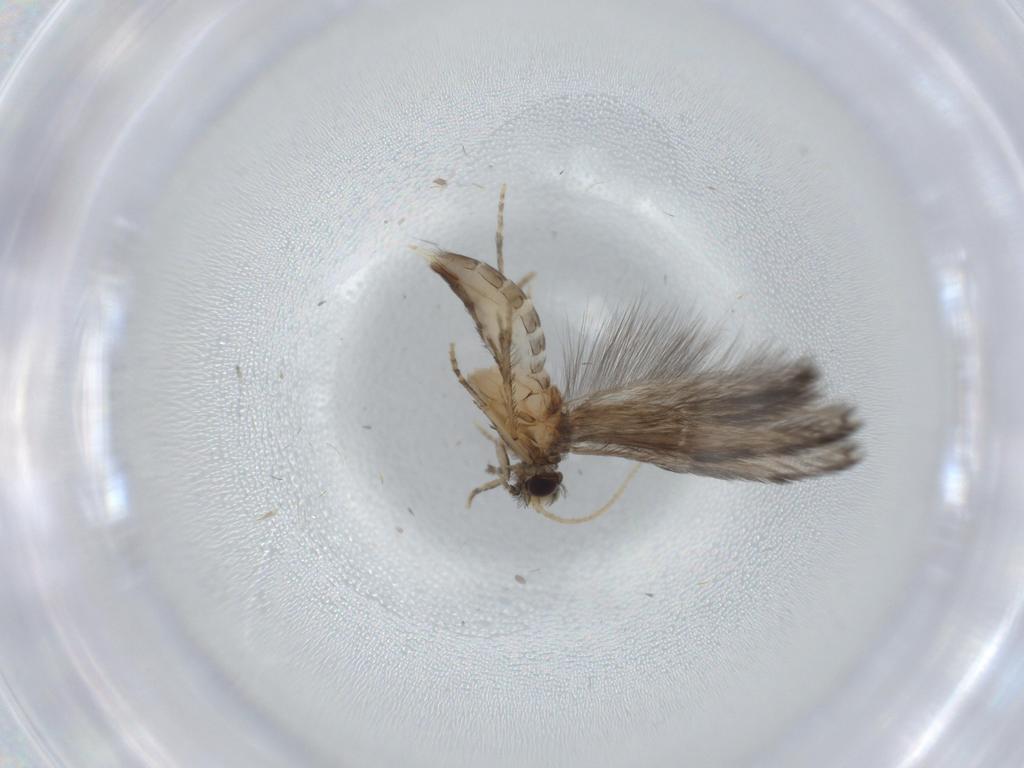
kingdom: Animalia
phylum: Arthropoda
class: Insecta
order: Trichoptera
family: Hydroptilidae
